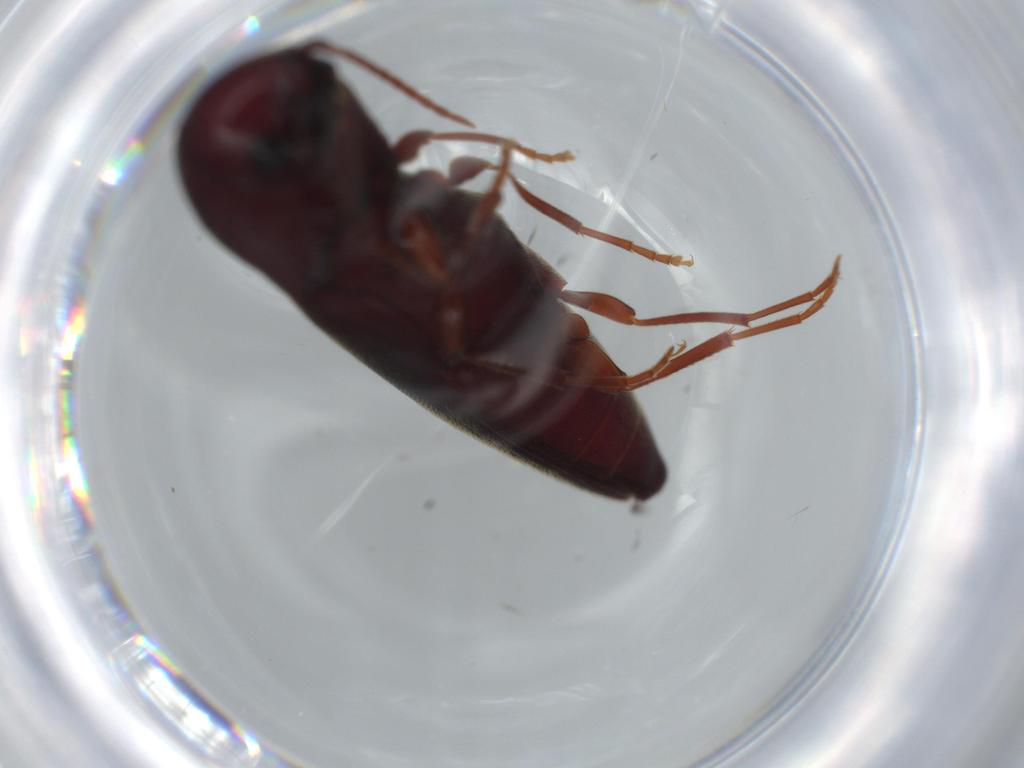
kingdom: Animalia
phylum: Arthropoda
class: Insecta
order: Coleoptera
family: Eucnemidae
